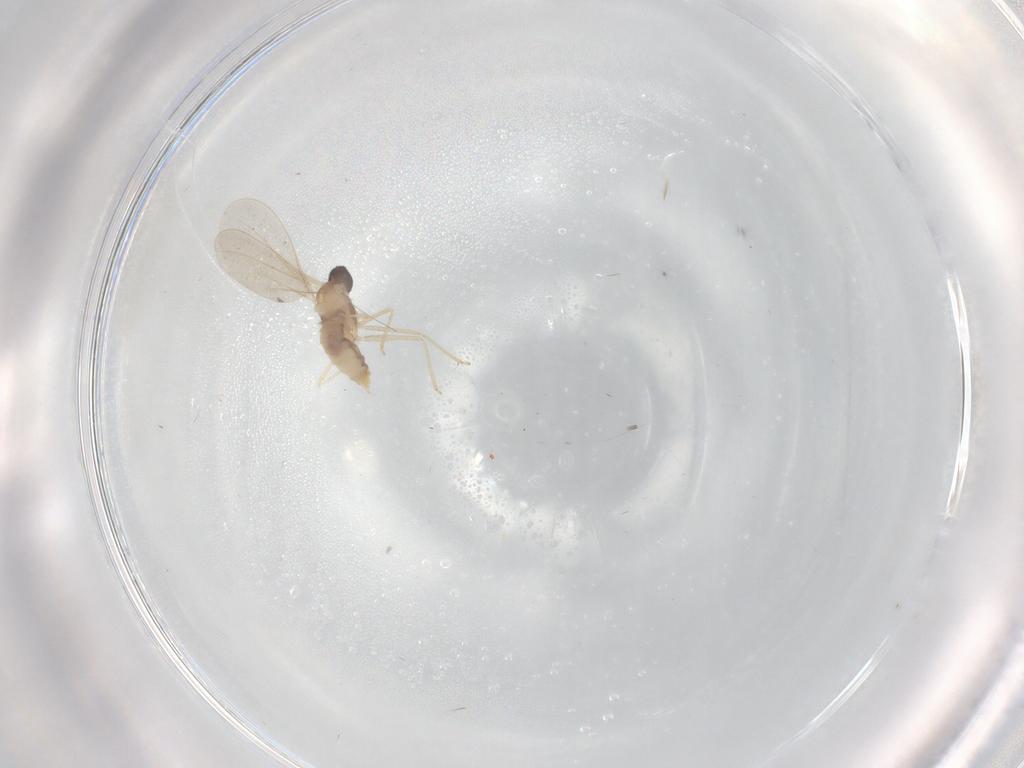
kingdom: Animalia
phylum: Arthropoda
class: Insecta
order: Diptera
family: Cecidomyiidae
